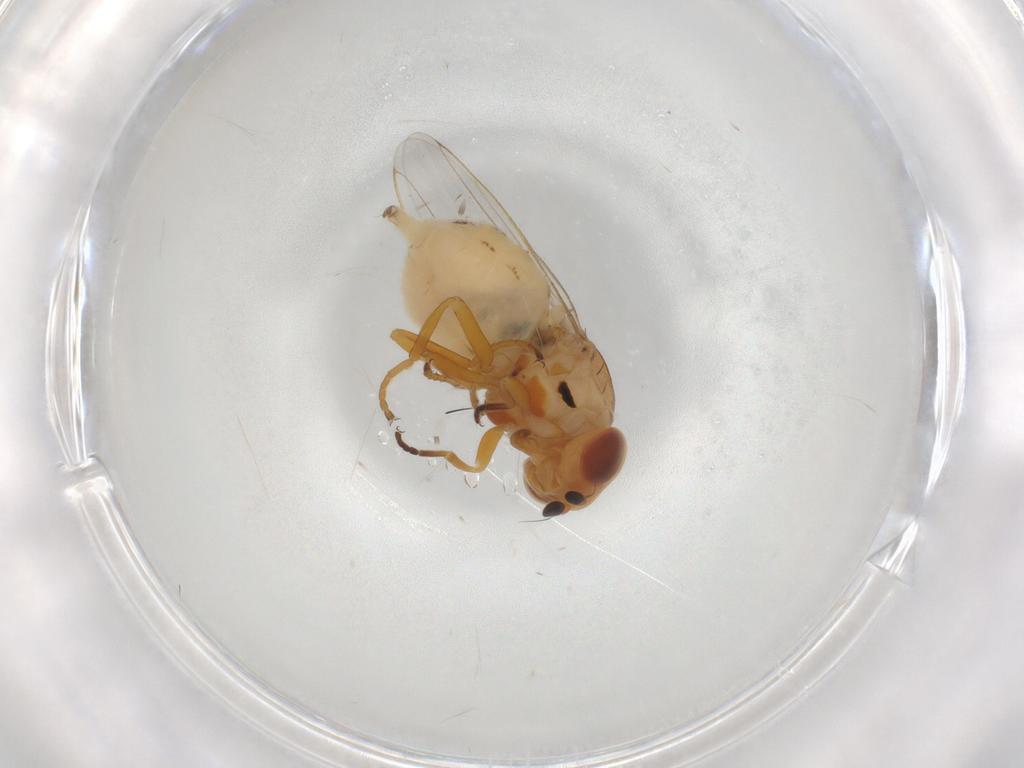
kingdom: Animalia
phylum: Arthropoda
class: Insecta
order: Diptera
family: Chloropidae
